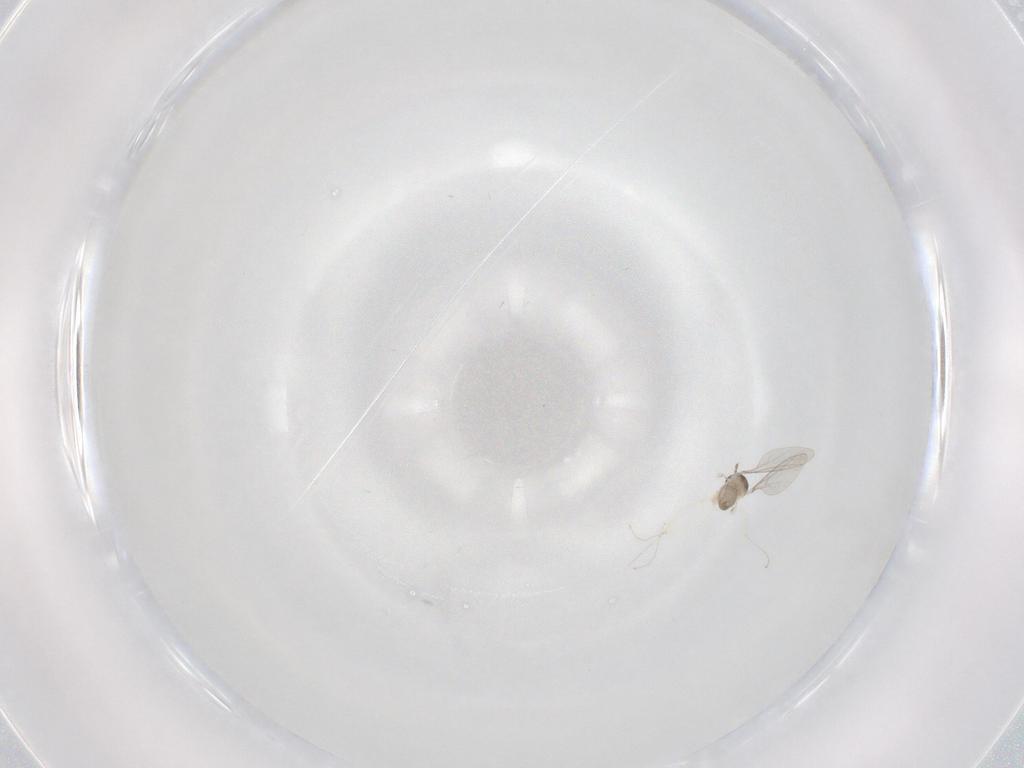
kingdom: Animalia
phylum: Arthropoda
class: Insecta
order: Diptera
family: Cecidomyiidae
